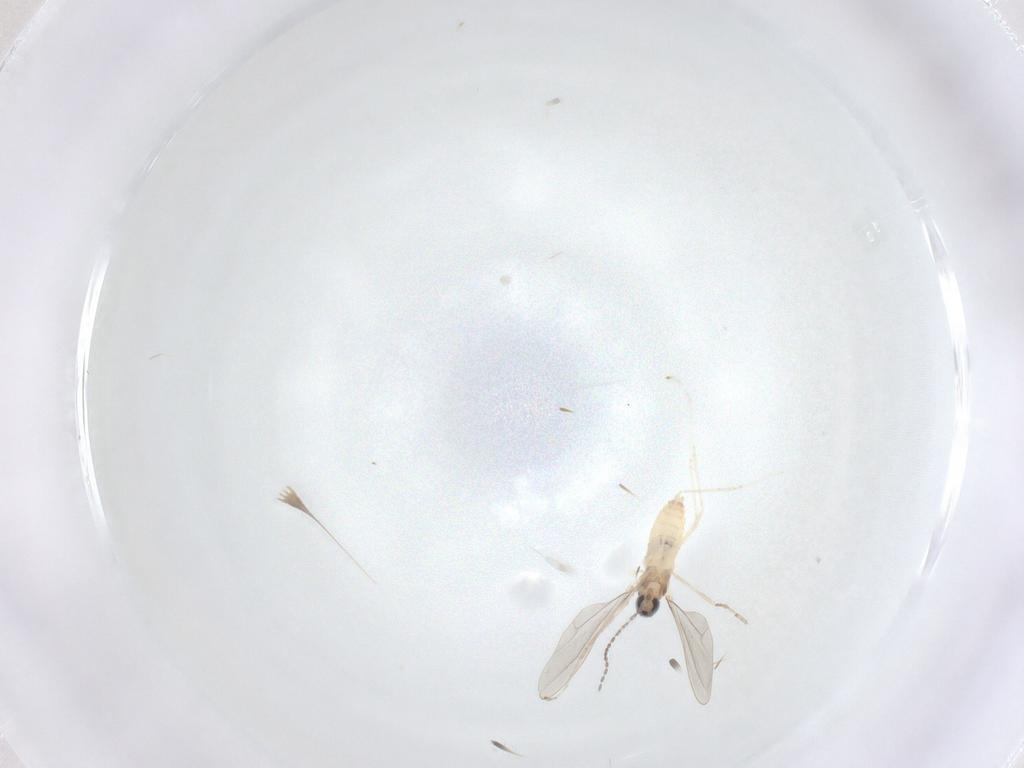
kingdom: Animalia
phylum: Arthropoda
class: Insecta
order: Diptera
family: Cecidomyiidae
